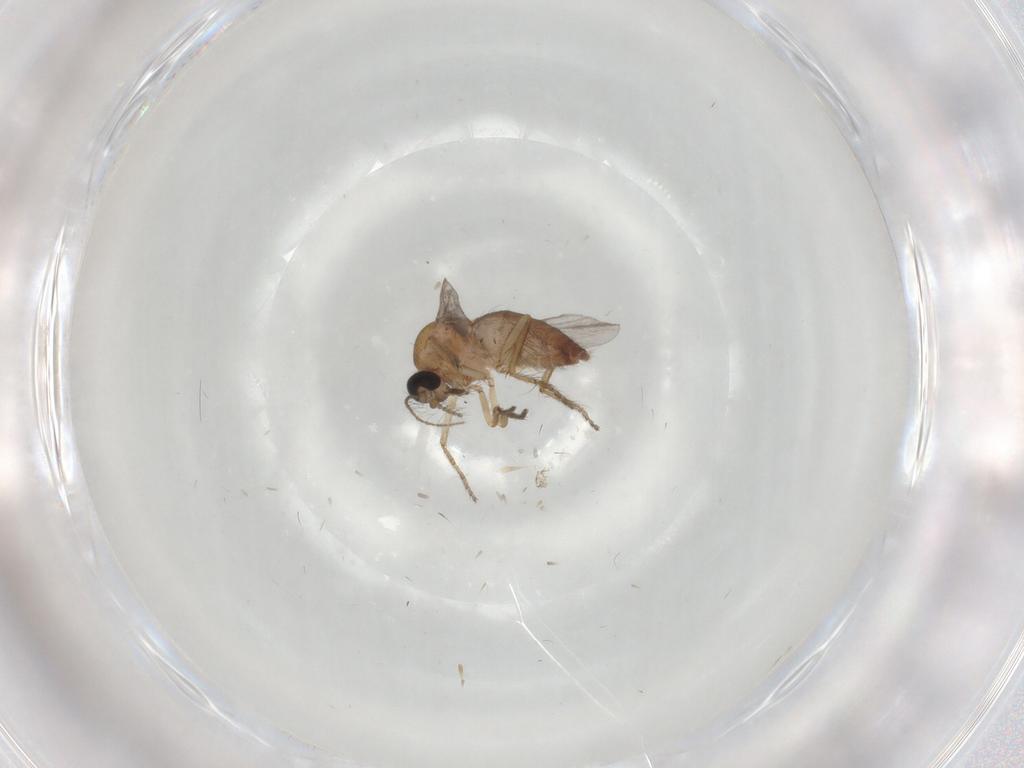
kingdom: Animalia
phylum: Arthropoda
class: Insecta
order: Diptera
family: Ceratopogonidae
